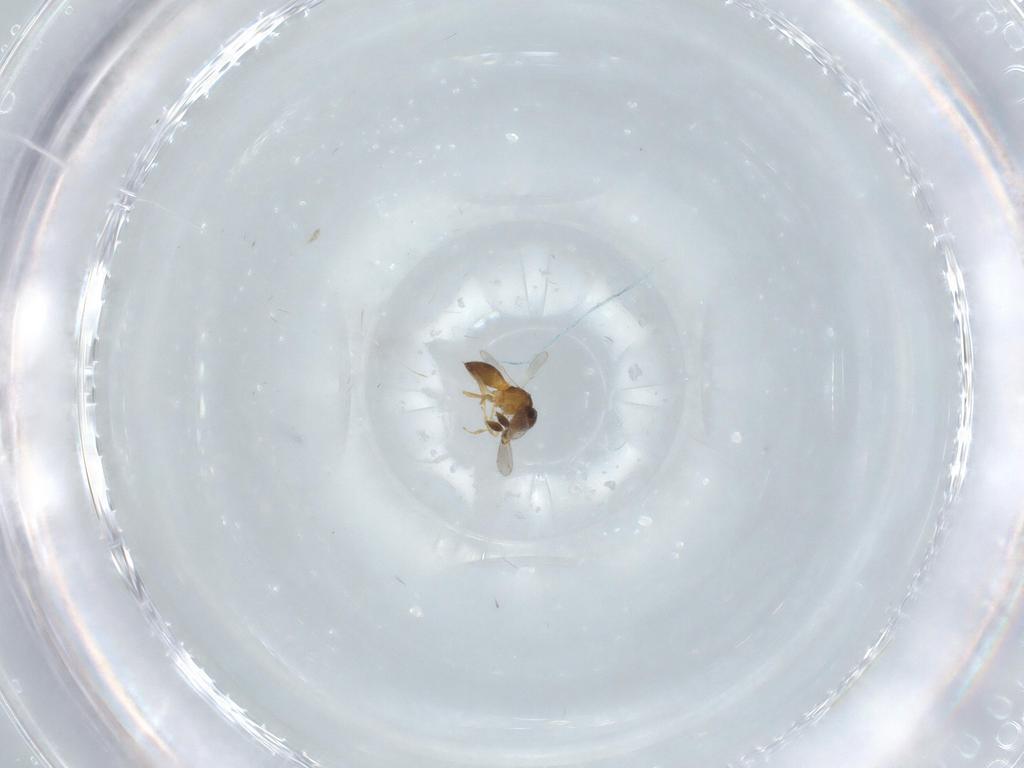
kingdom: Animalia
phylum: Arthropoda
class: Insecta
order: Hymenoptera
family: Scelionidae
